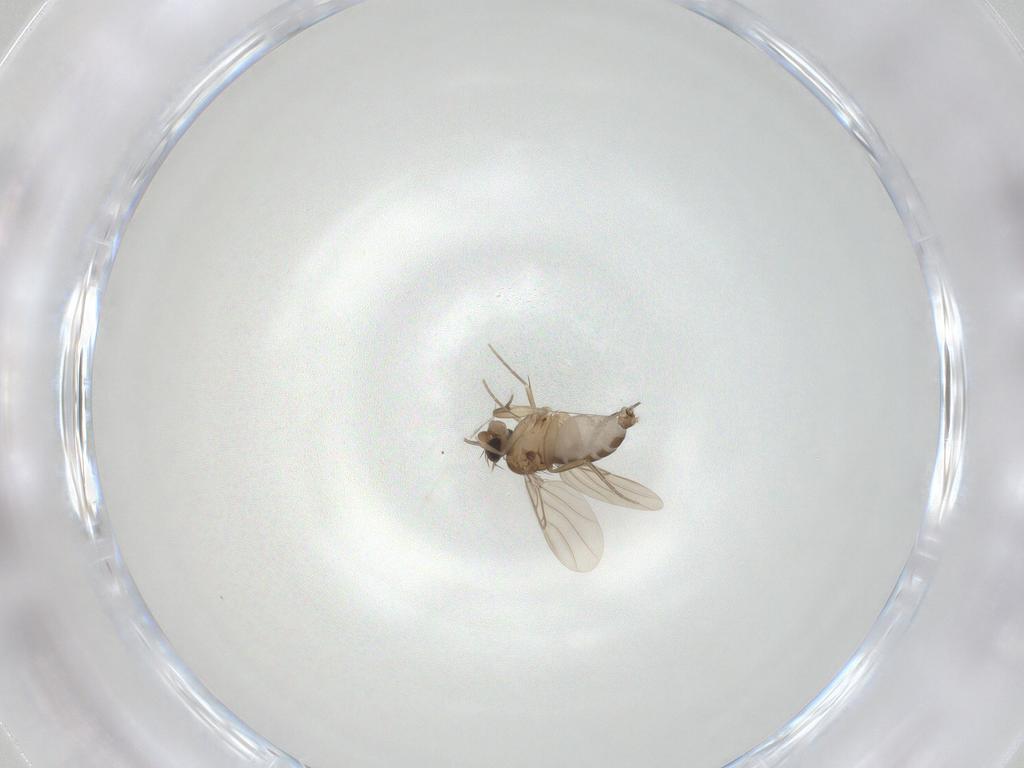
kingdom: Animalia
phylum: Arthropoda
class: Insecta
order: Diptera
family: Phoridae
